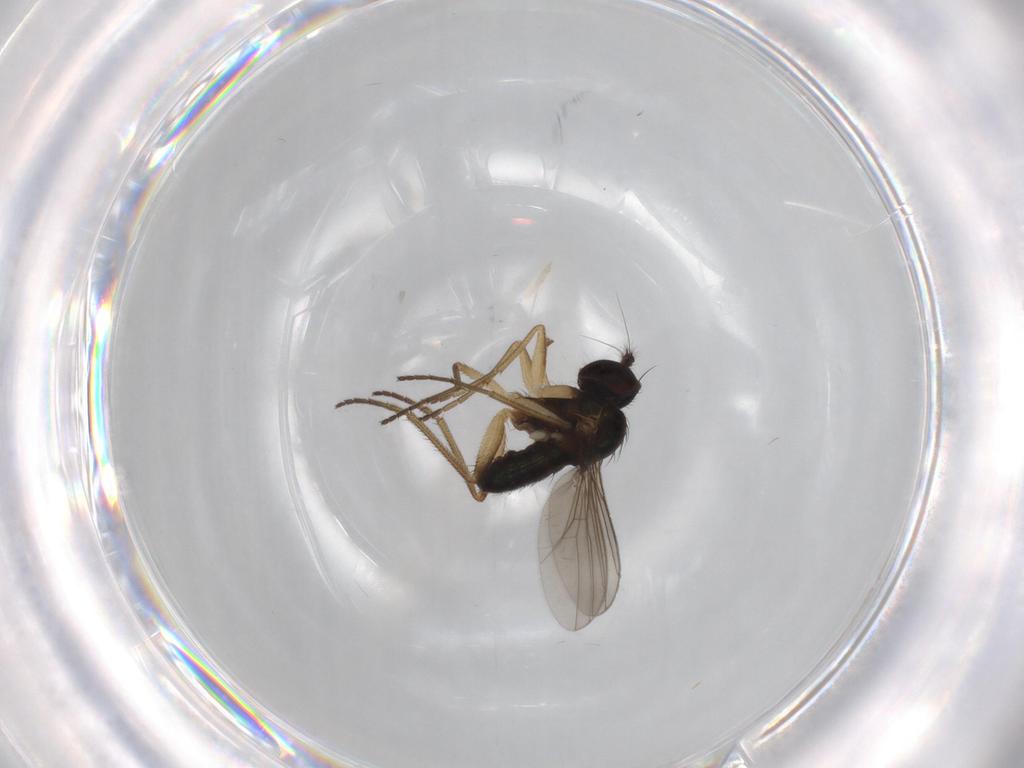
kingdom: Animalia
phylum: Arthropoda
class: Insecta
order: Diptera
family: Dolichopodidae
